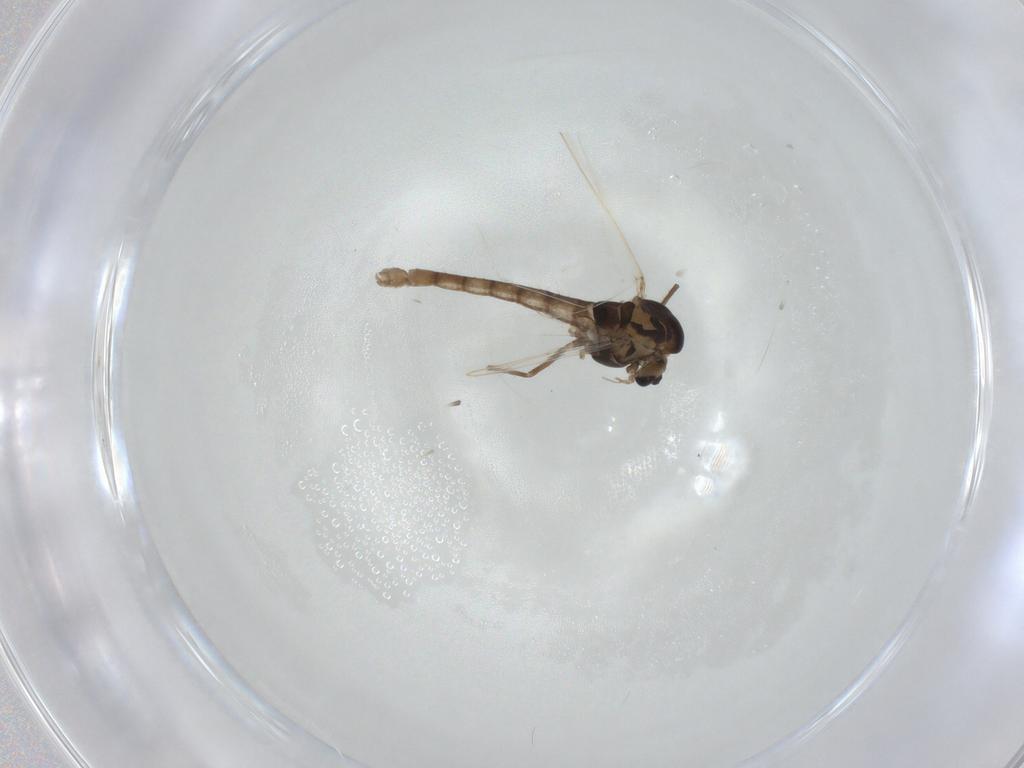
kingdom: Animalia
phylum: Arthropoda
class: Insecta
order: Diptera
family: Chironomidae
